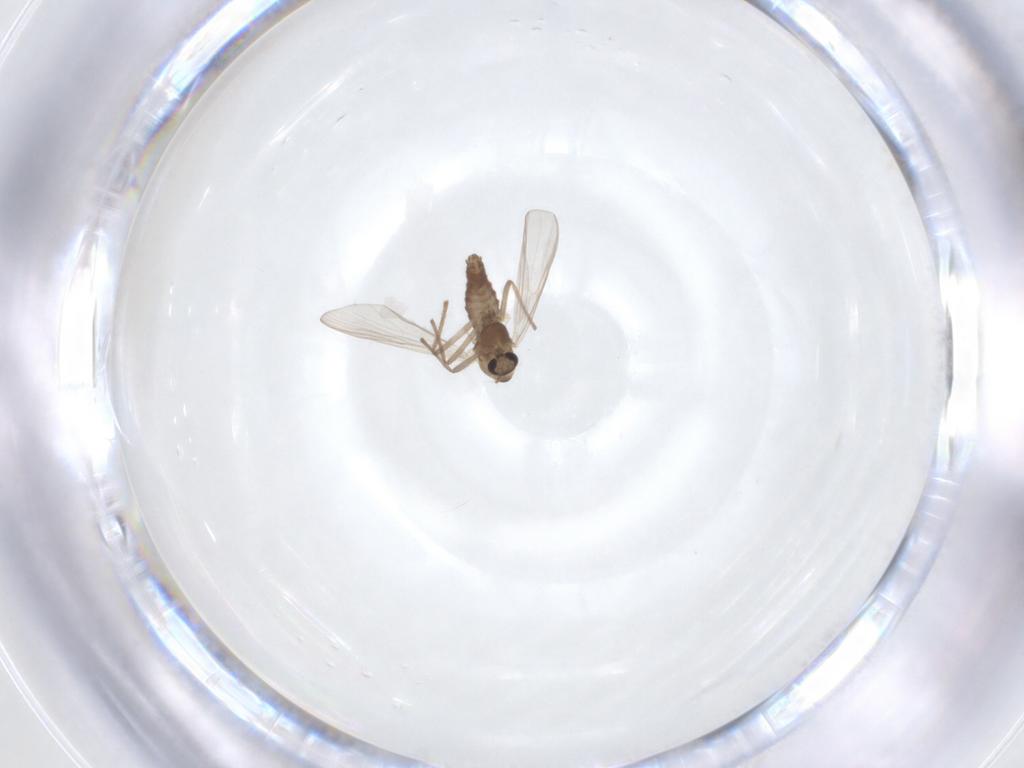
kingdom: Animalia
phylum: Arthropoda
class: Insecta
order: Diptera
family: Chironomidae
